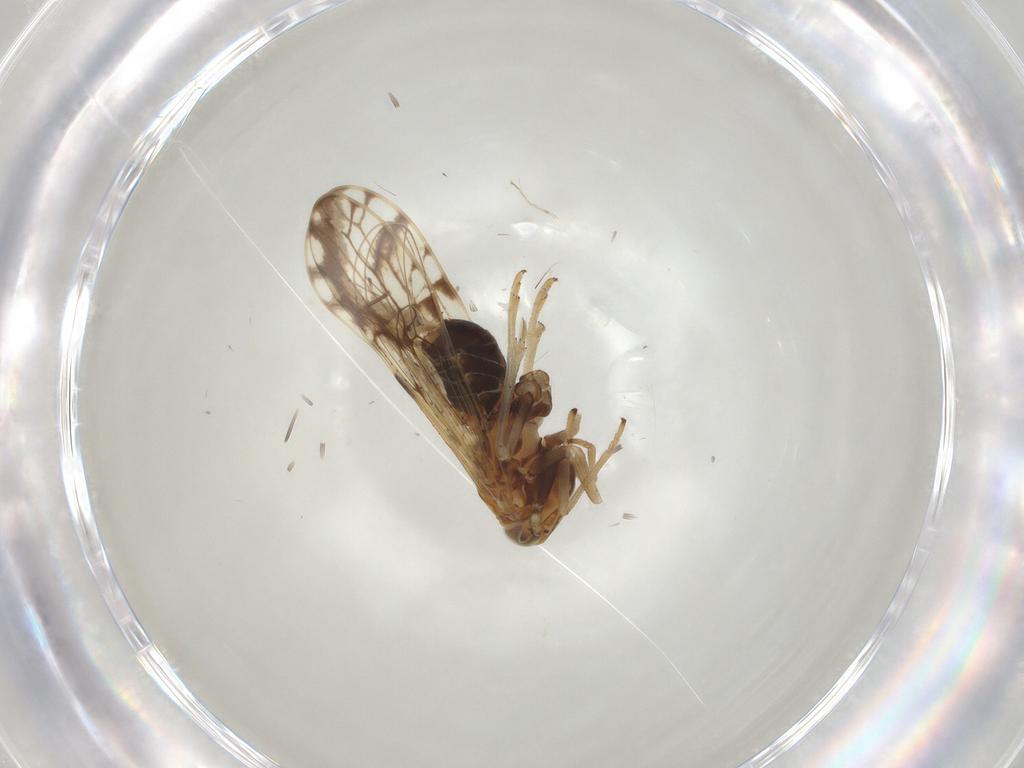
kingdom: Animalia
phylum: Arthropoda
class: Insecta
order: Hemiptera
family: Delphacidae
